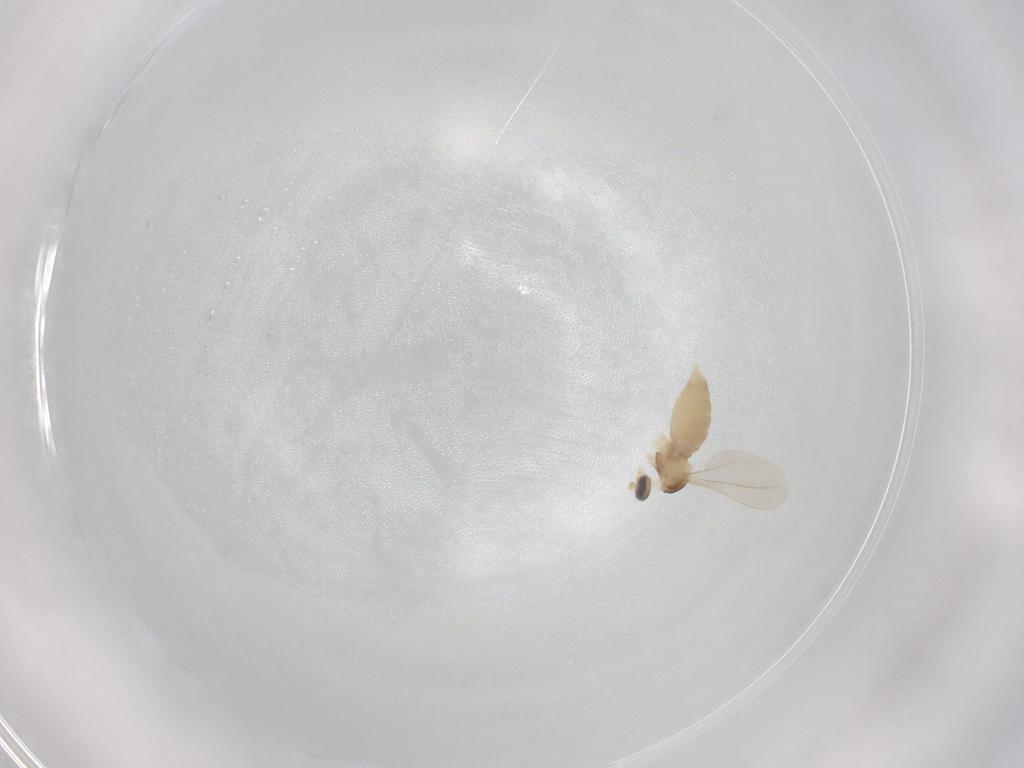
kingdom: Animalia
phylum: Arthropoda
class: Insecta
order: Diptera
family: Cecidomyiidae
